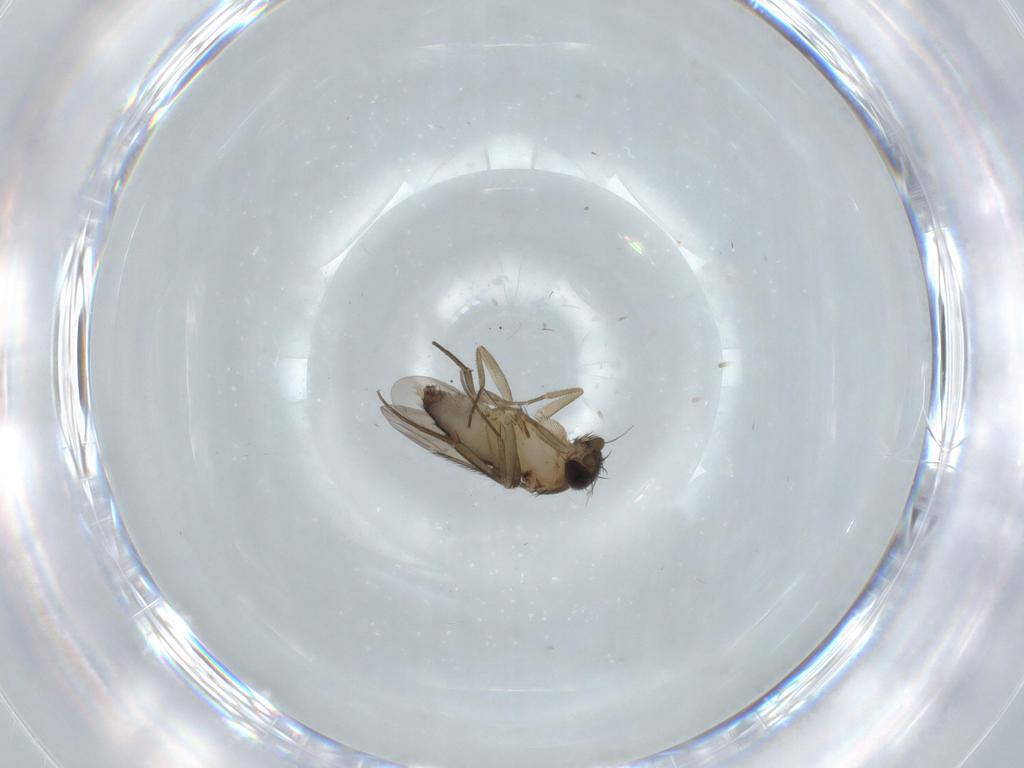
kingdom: Animalia
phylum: Arthropoda
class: Insecta
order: Diptera
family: Phoridae
